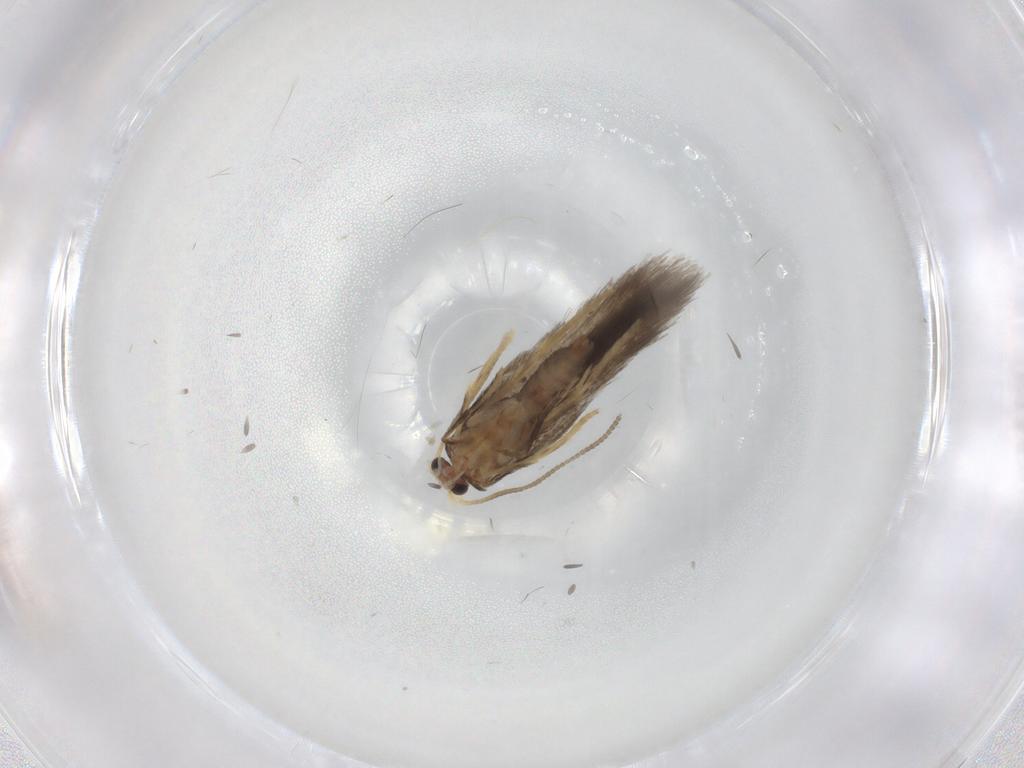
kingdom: Animalia
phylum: Arthropoda
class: Insecta
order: Lepidoptera
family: Nepticulidae
